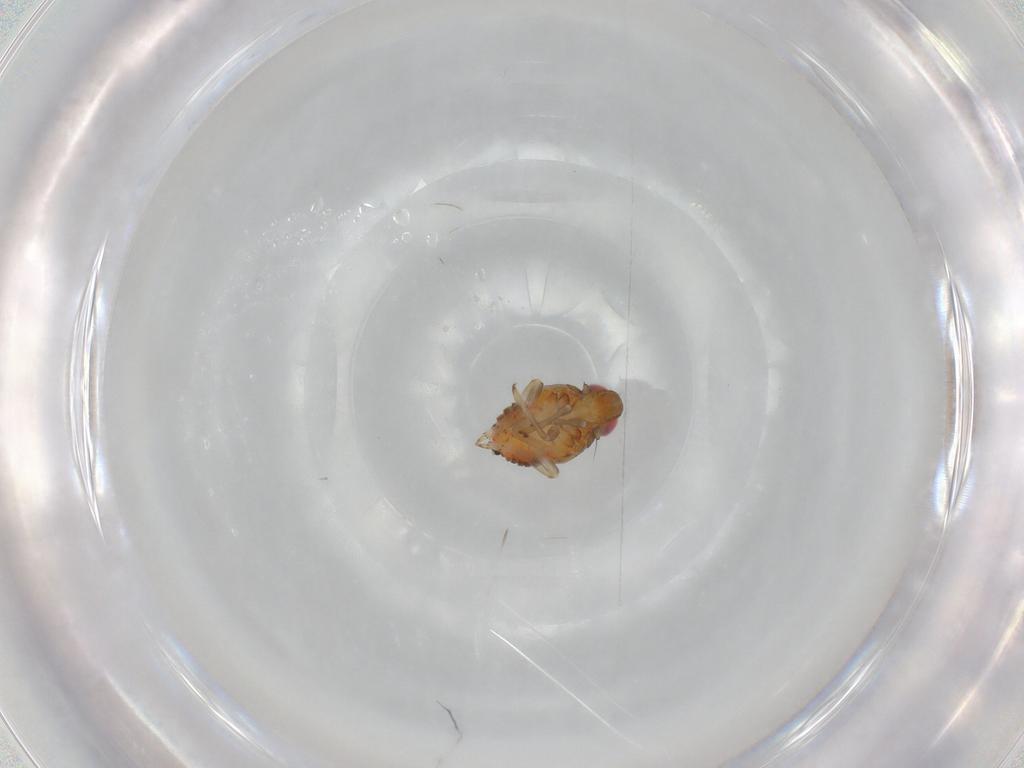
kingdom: Animalia
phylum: Arthropoda
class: Insecta
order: Hemiptera
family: Issidae
